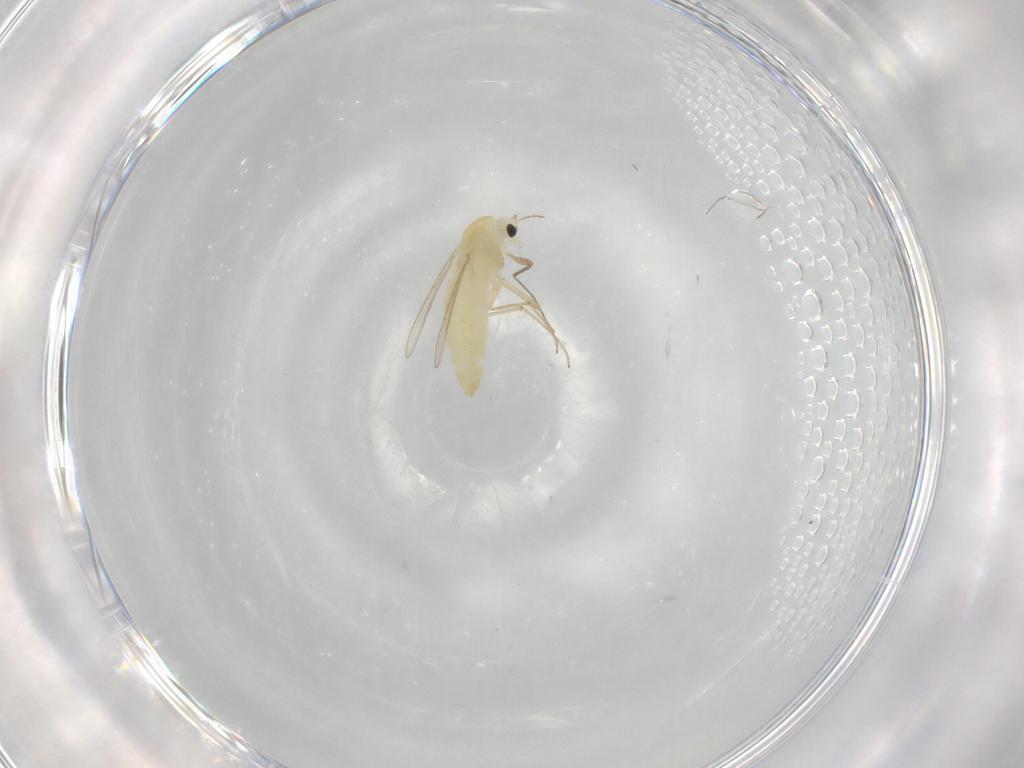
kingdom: Animalia
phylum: Arthropoda
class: Insecta
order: Diptera
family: Chironomidae
